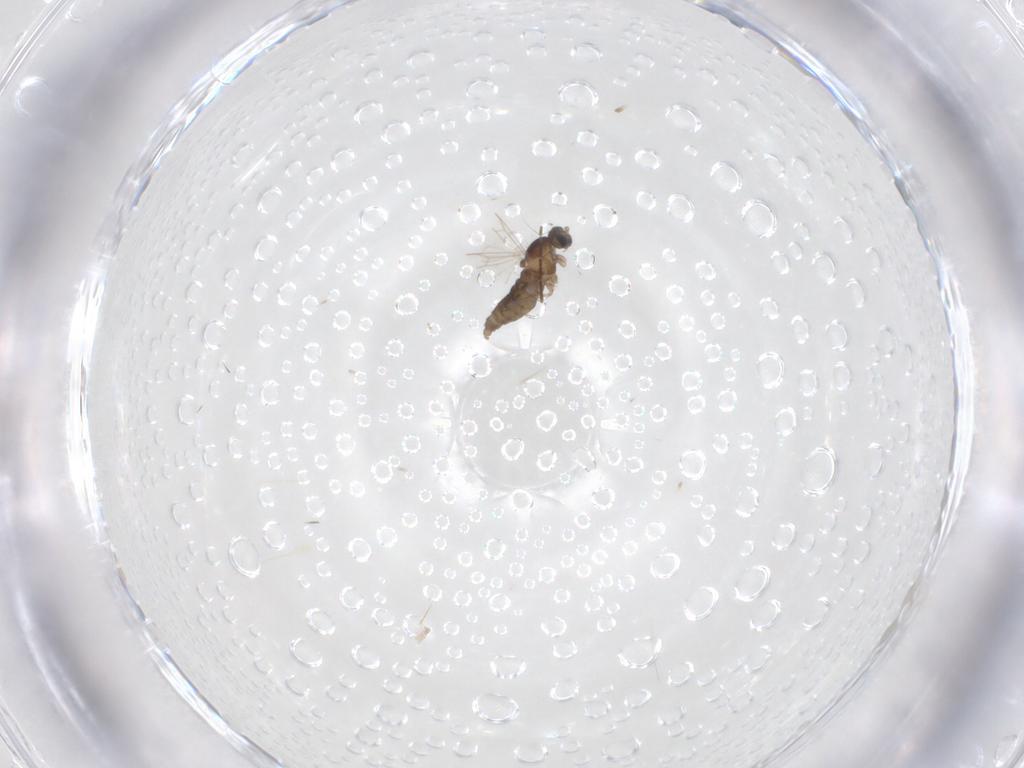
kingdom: Animalia
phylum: Arthropoda
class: Insecta
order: Diptera
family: Cecidomyiidae
